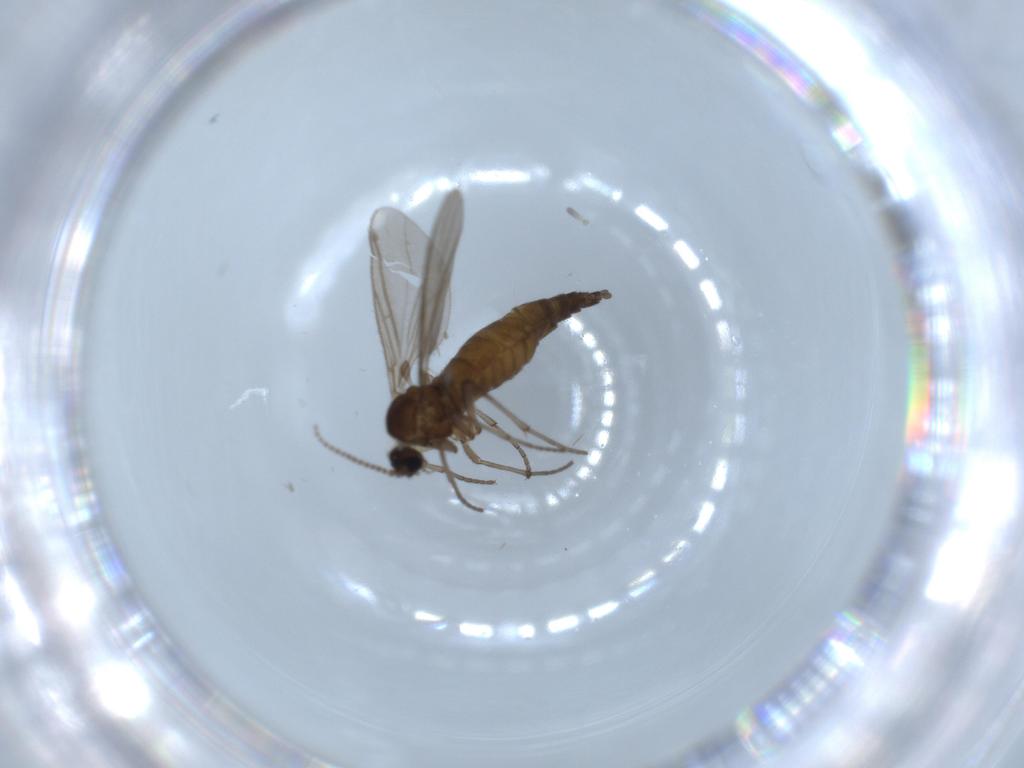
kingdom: Animalia
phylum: Arthropoda
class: Insecta
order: Diptera
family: Sciaridae
